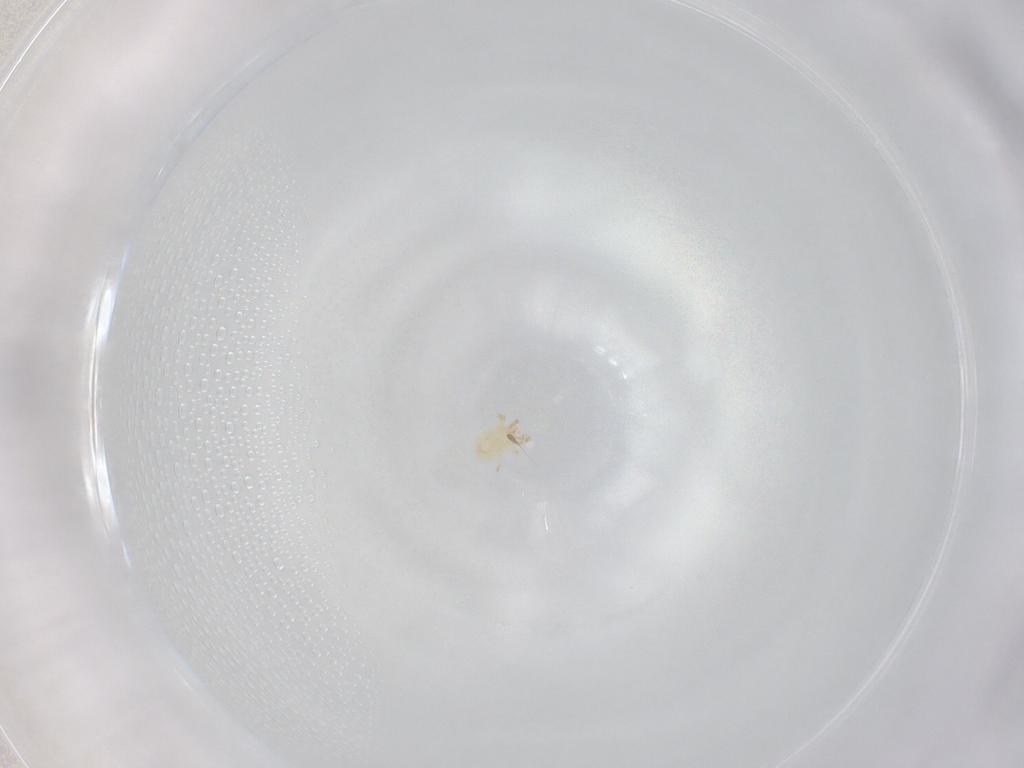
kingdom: Animalia
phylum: Arthropoda
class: Arachnida
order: Mesostigmata
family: Phytoseiidae
